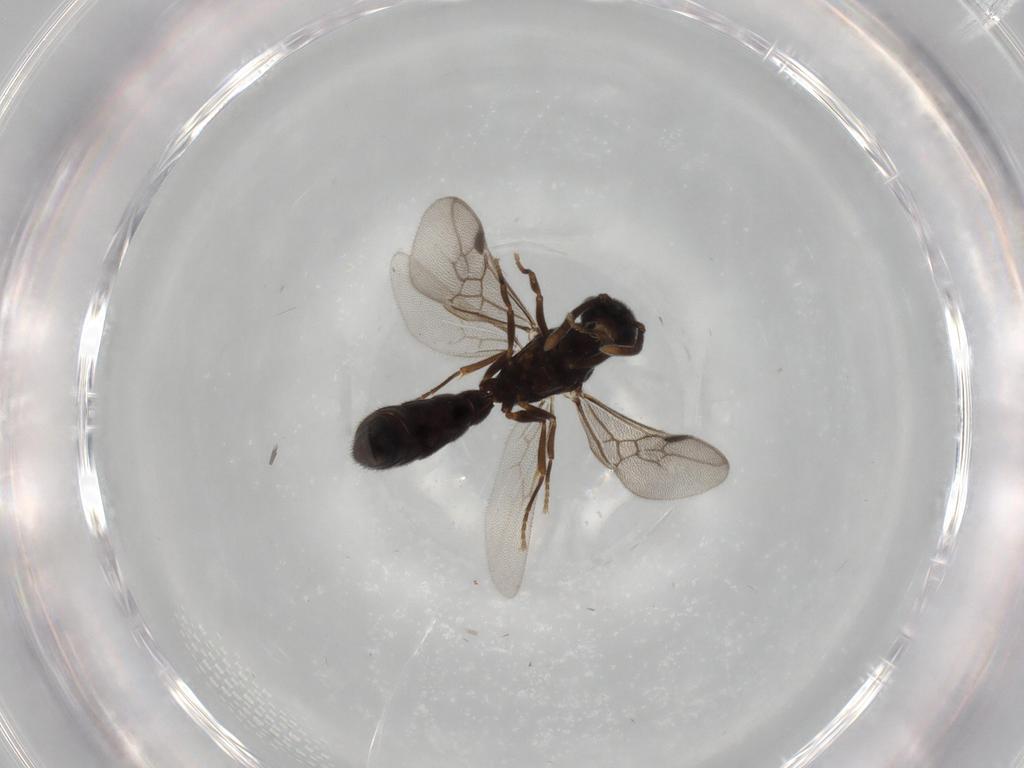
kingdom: Animalia
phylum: Arthropoda
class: Insecta
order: Hymenoptera
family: Formicidae
